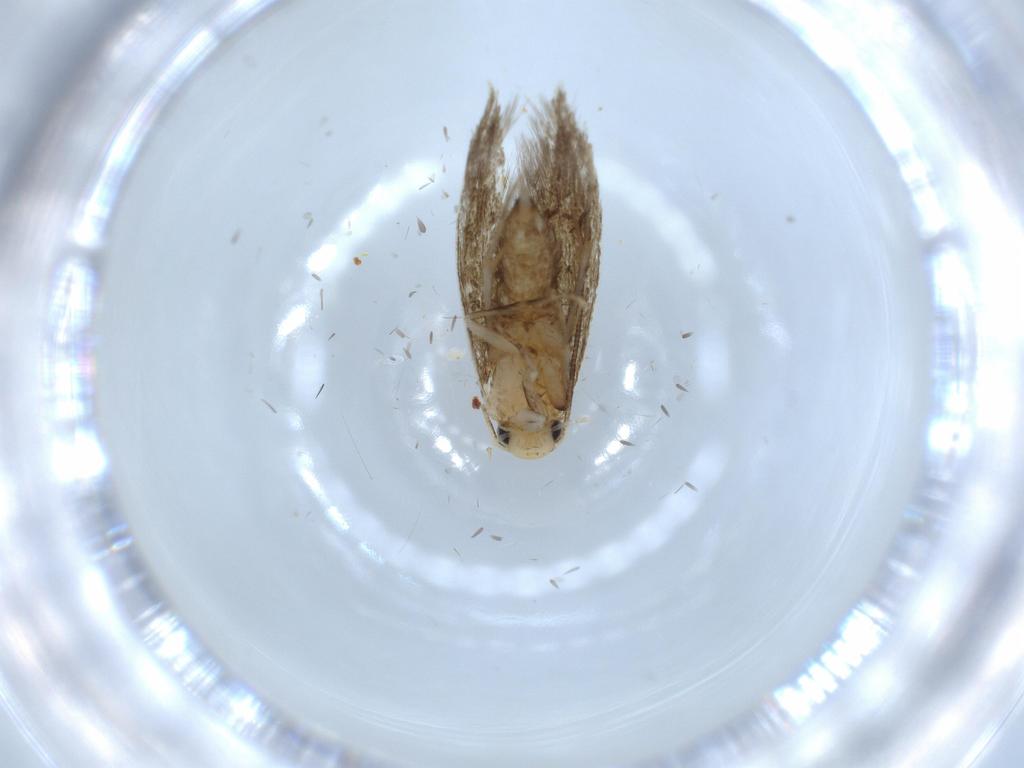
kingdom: Animalia
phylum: Arthropoda
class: Insecta
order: Lepidoptera
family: Tineidae
